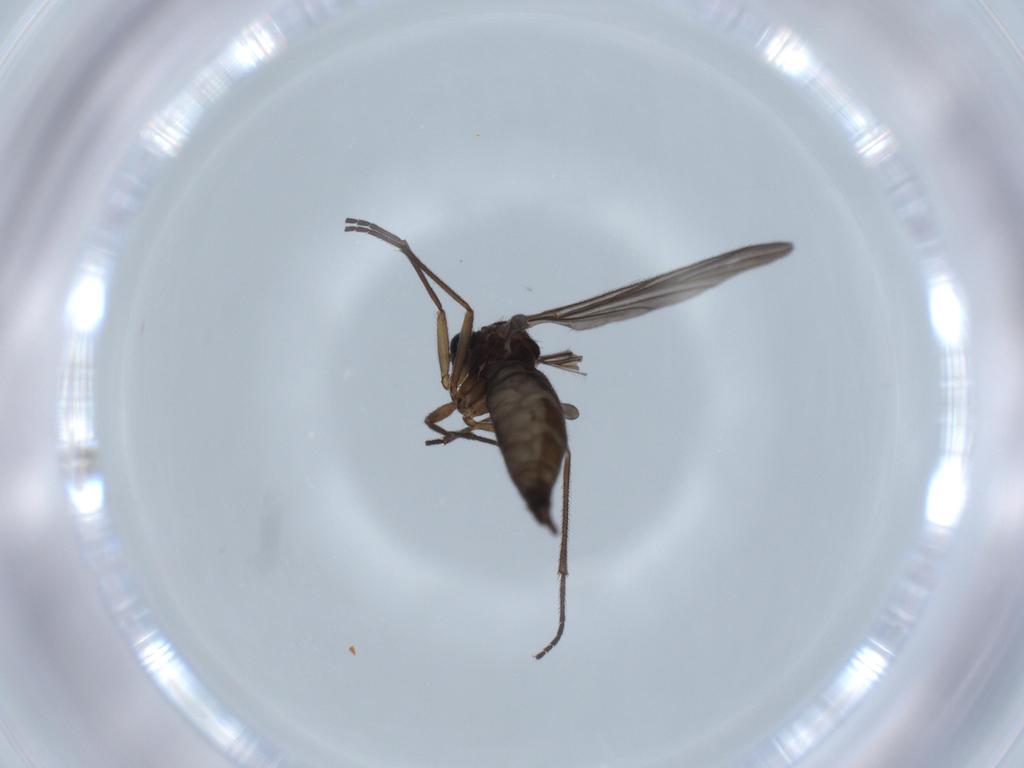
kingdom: Animalia
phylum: Arthropoda
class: Insecta
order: Diptera
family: Sciaridae
